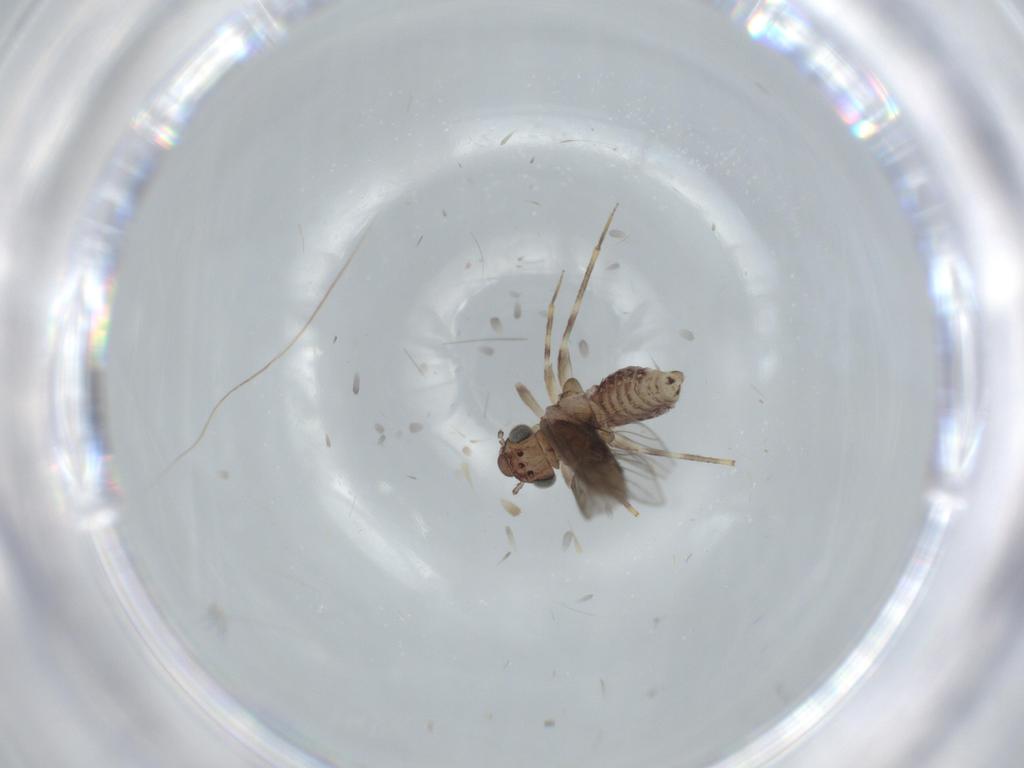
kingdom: Animalia
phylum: Arthropoda
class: Insecta
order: Psocodea
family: Lepidopsocidae
